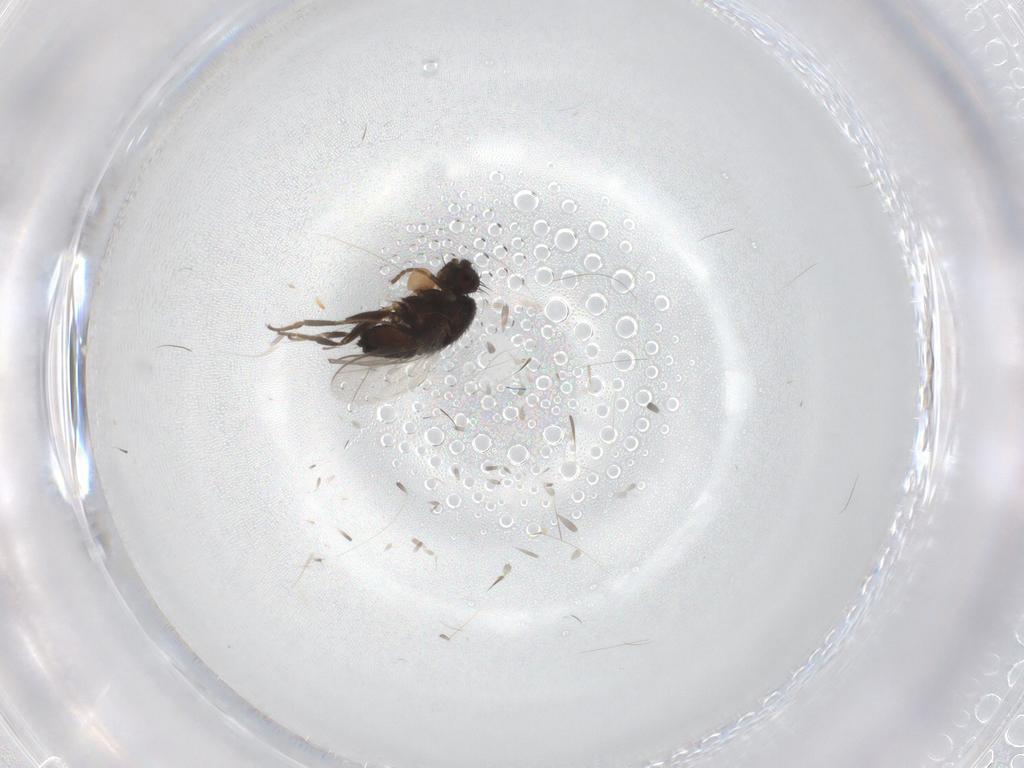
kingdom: Animalia
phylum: Arthropoda
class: Insecta
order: Diptera
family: Sphaeroceridae
